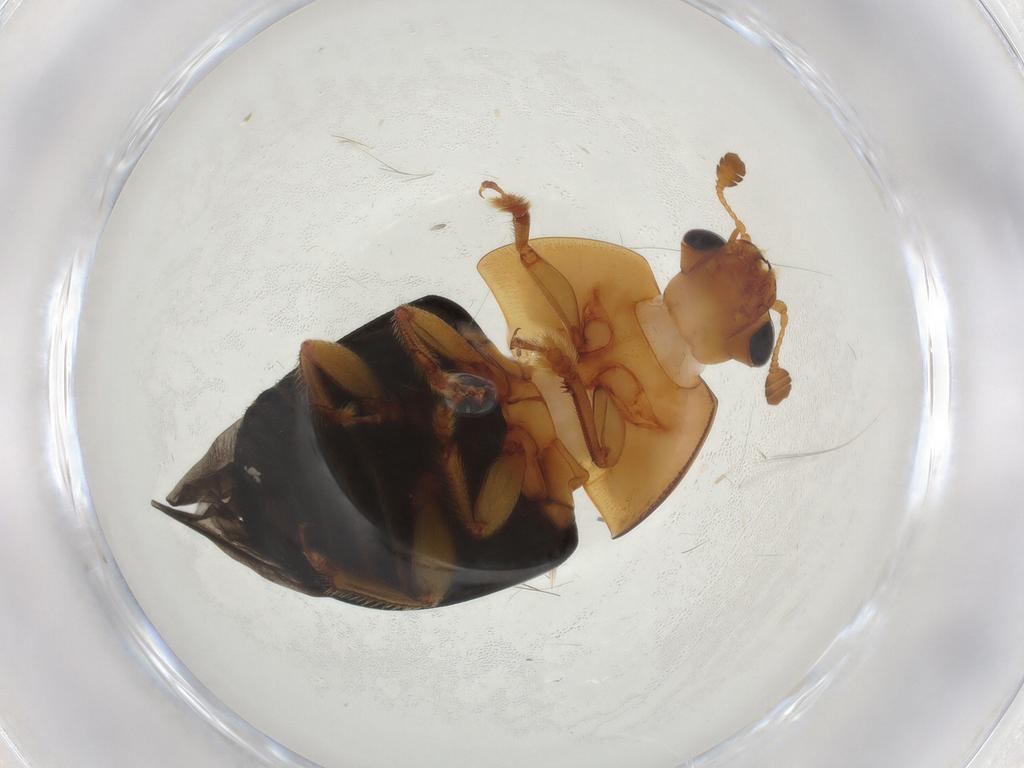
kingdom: Animalia
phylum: Arthropoda
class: Insecta
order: Coleoptera
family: Nitidulidae
